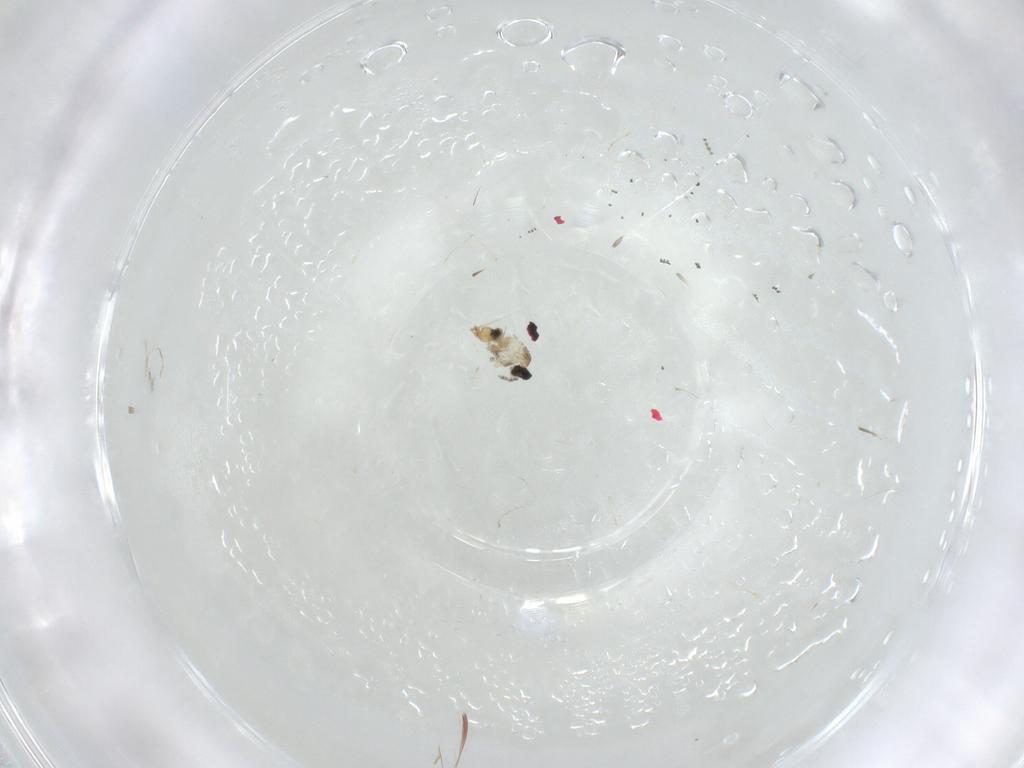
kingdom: Animalia
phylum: Arthropoda
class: Insecta
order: Diptera
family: Cecidomyiidae
